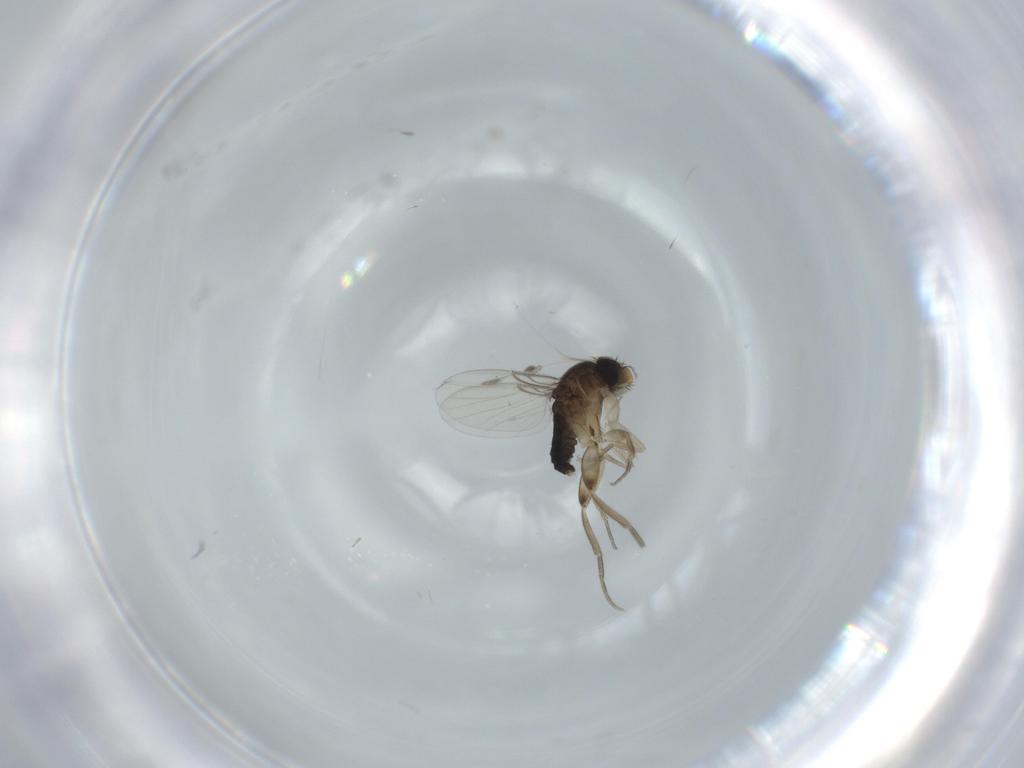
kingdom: Animalia
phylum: Arthropoda
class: Insecta
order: Diptera
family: Phoridae
